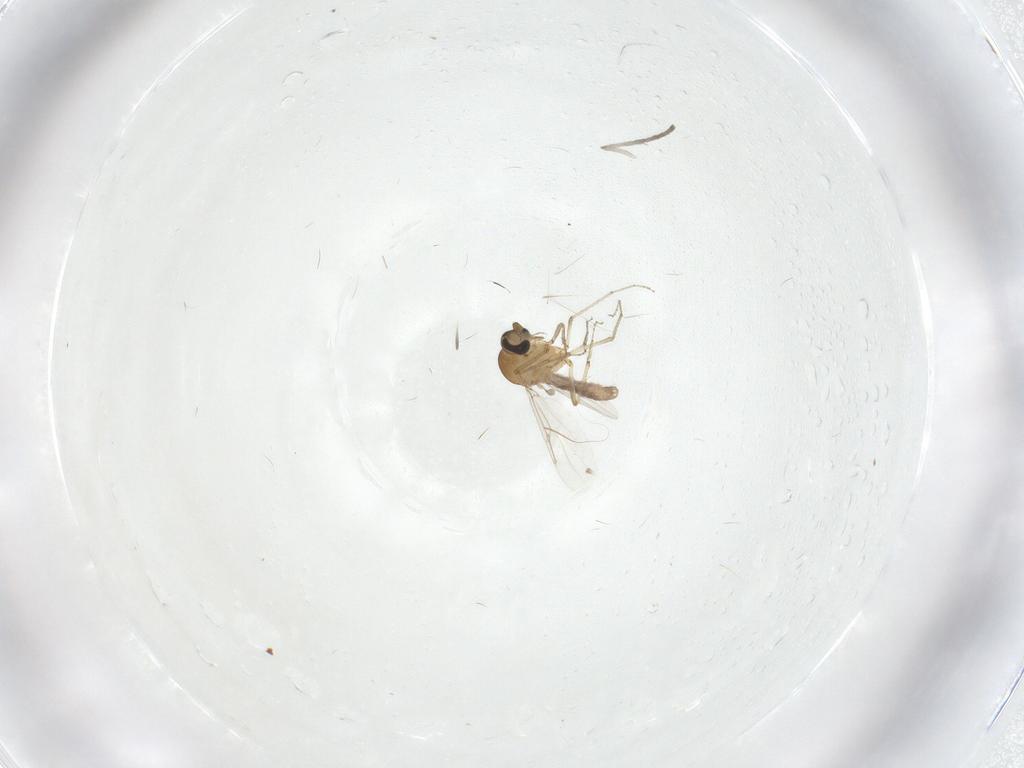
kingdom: Animalia
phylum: Arthropoda
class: Insecta
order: Diptera
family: Psychodidae
